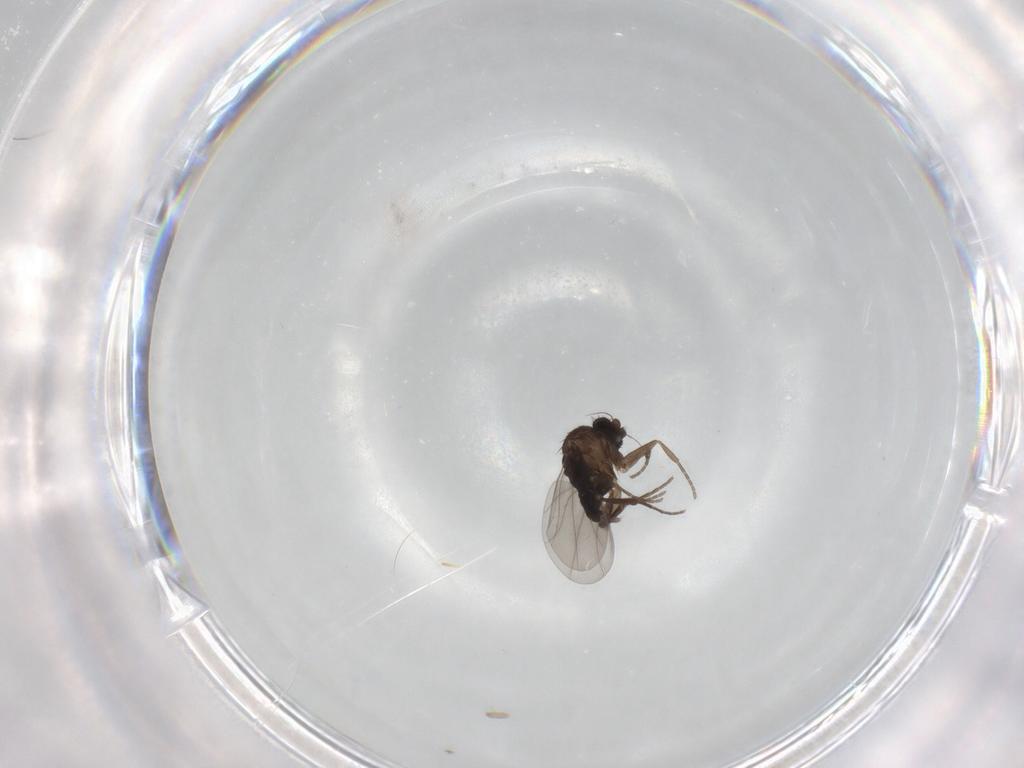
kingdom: Animalia
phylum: Arthropoda
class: Insecta
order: Diptera
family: Phoridae
